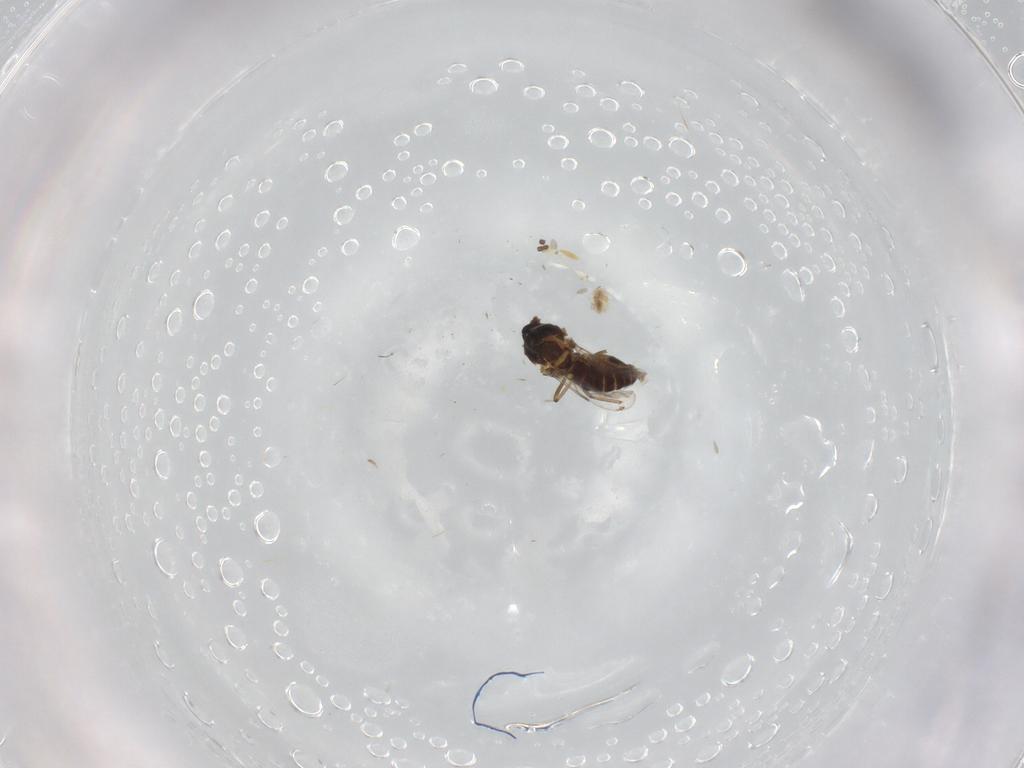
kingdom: Animalia
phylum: Arthropoda
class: Insecta
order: Diptera
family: Ceratopogonidae
